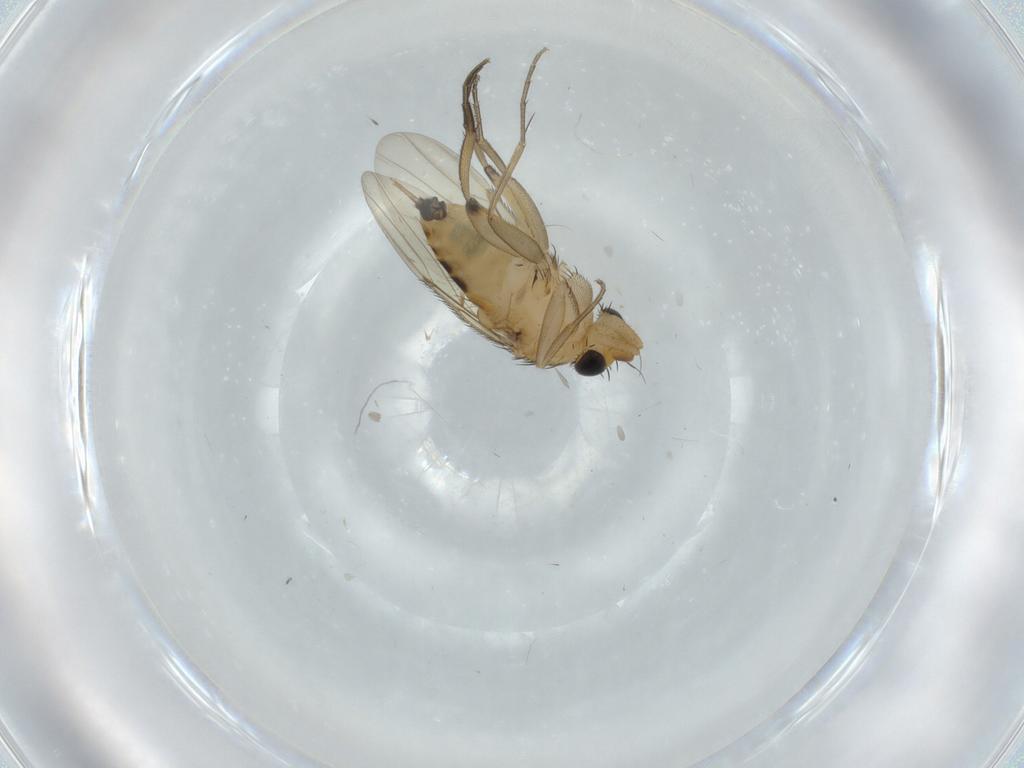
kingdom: Animalia
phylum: Arthropoda
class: Insecta
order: Diptera
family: Phoridae
